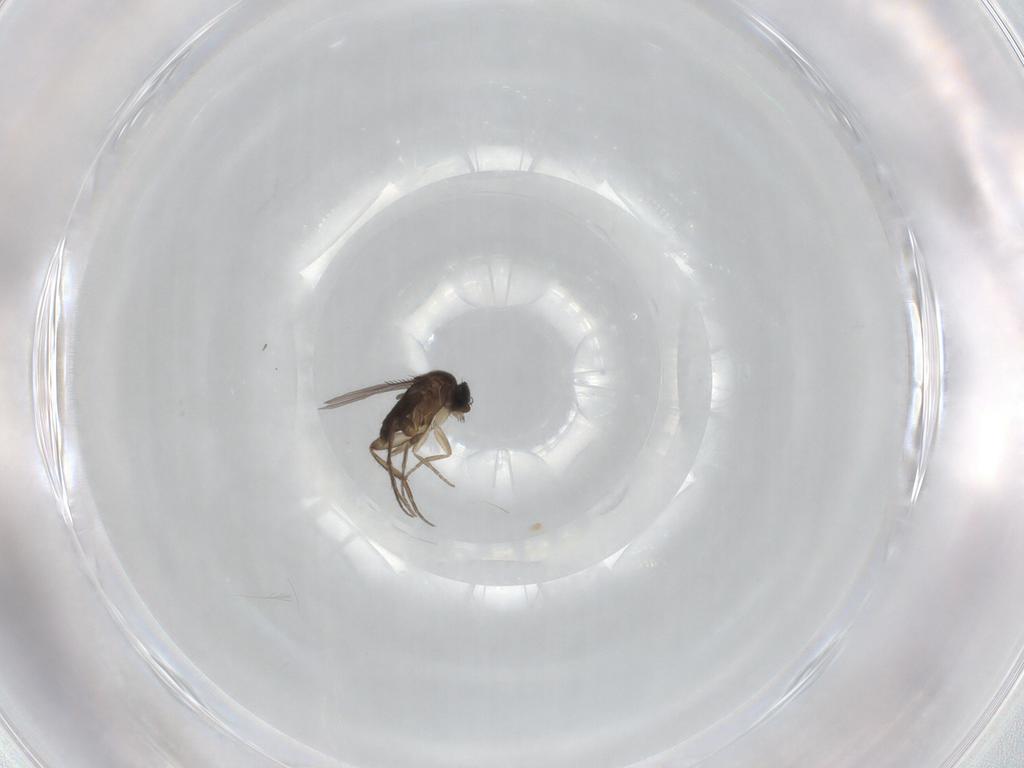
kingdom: Animalia
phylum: Arthropoda
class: Insecta
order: Diptera
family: Phoridae
